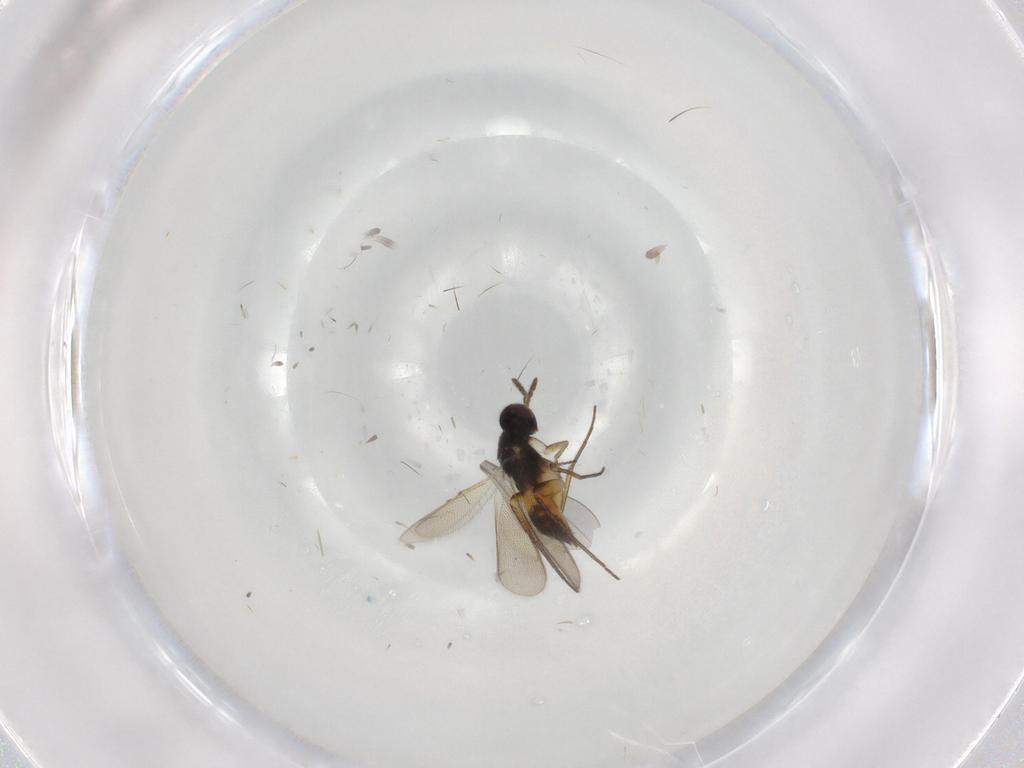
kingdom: Animalia
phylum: Arthropoda
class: Insecta
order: Hymenoptera
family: Eulophidae
